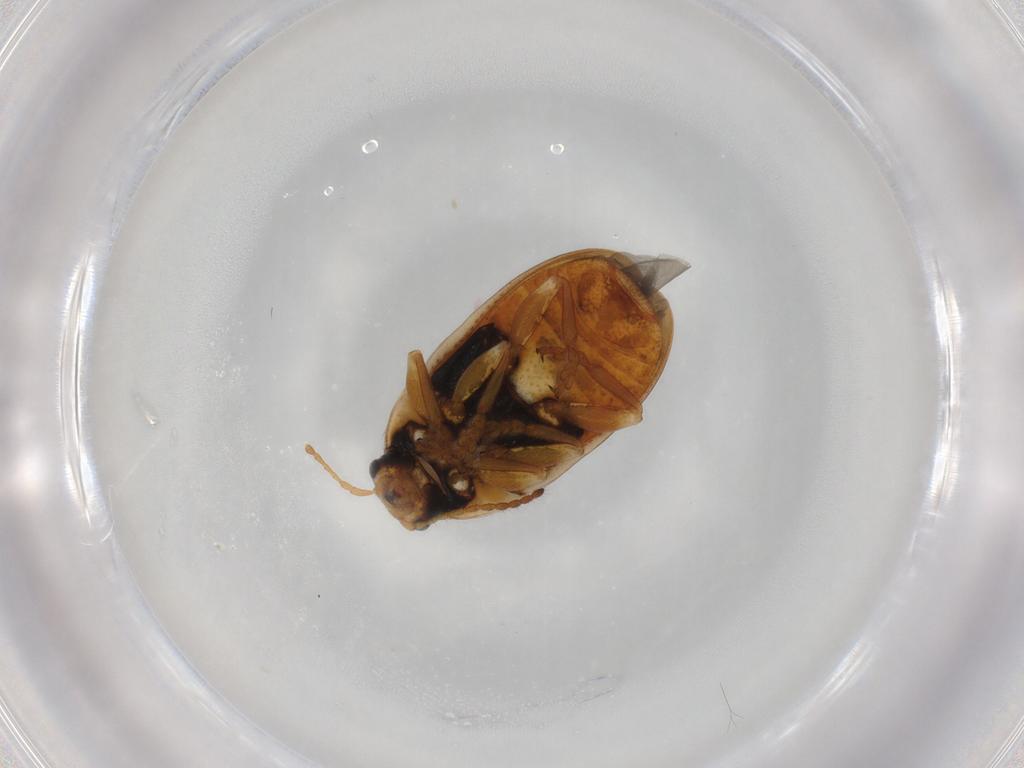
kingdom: Animalia
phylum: Arthropoda
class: Insecta
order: Coleoptera
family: Chrysomelidae
